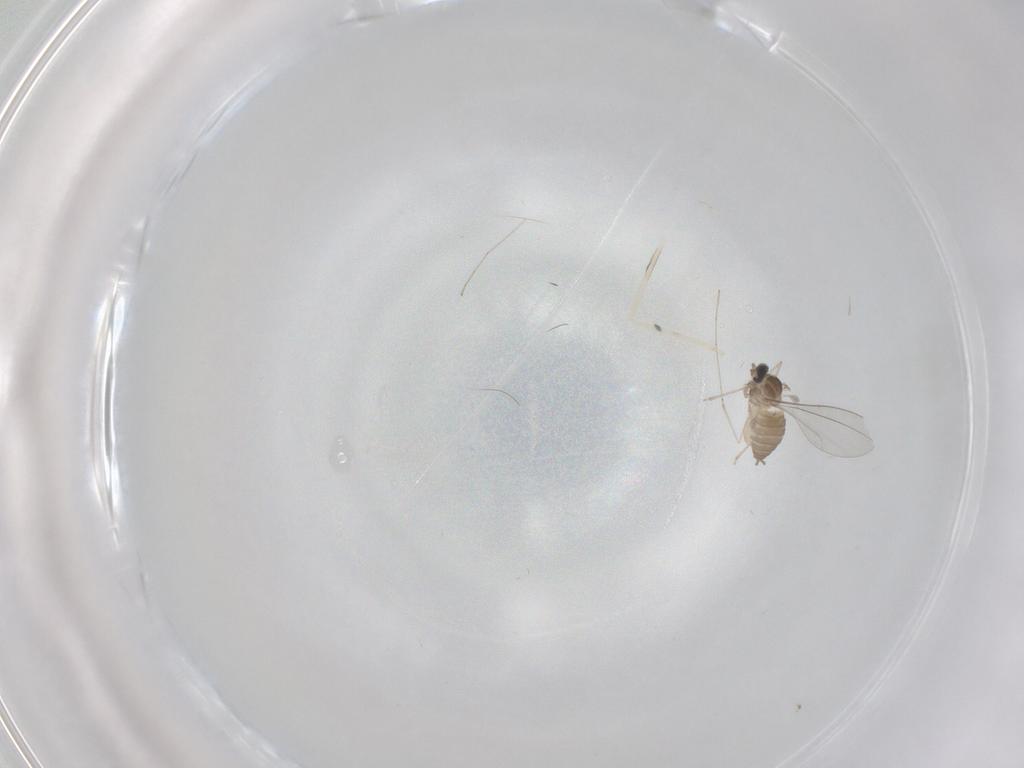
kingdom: Animalia
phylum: Arthropoda
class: Insecta
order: Diptera
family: Cecidomyiidae
